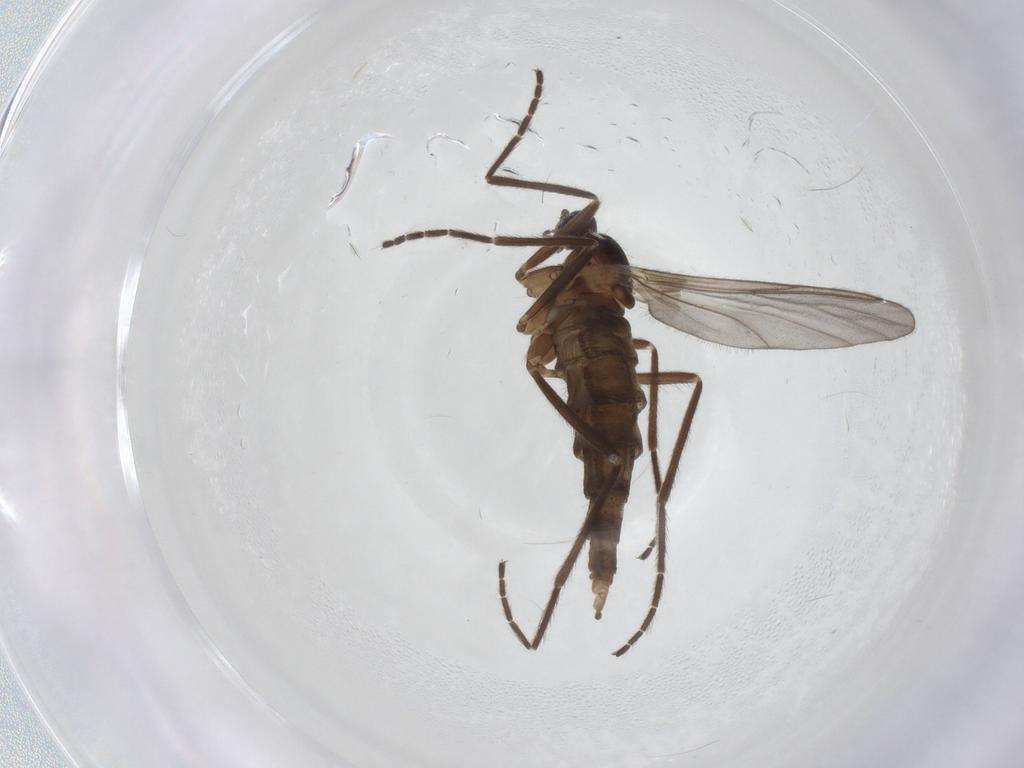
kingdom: Animalia
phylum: Arthropoda
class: Insecta
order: Diptera
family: Cecidomyiidae
